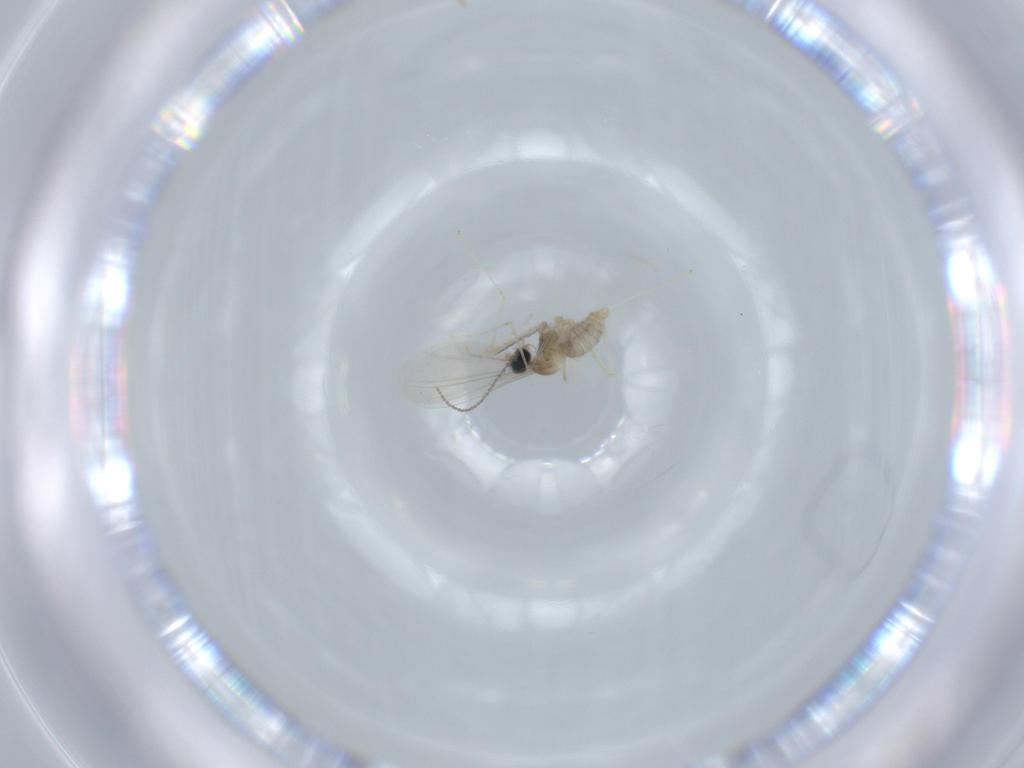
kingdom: Animalia
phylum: Arthropoda
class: Insecta
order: Diptera
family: Cecidomyiidae
